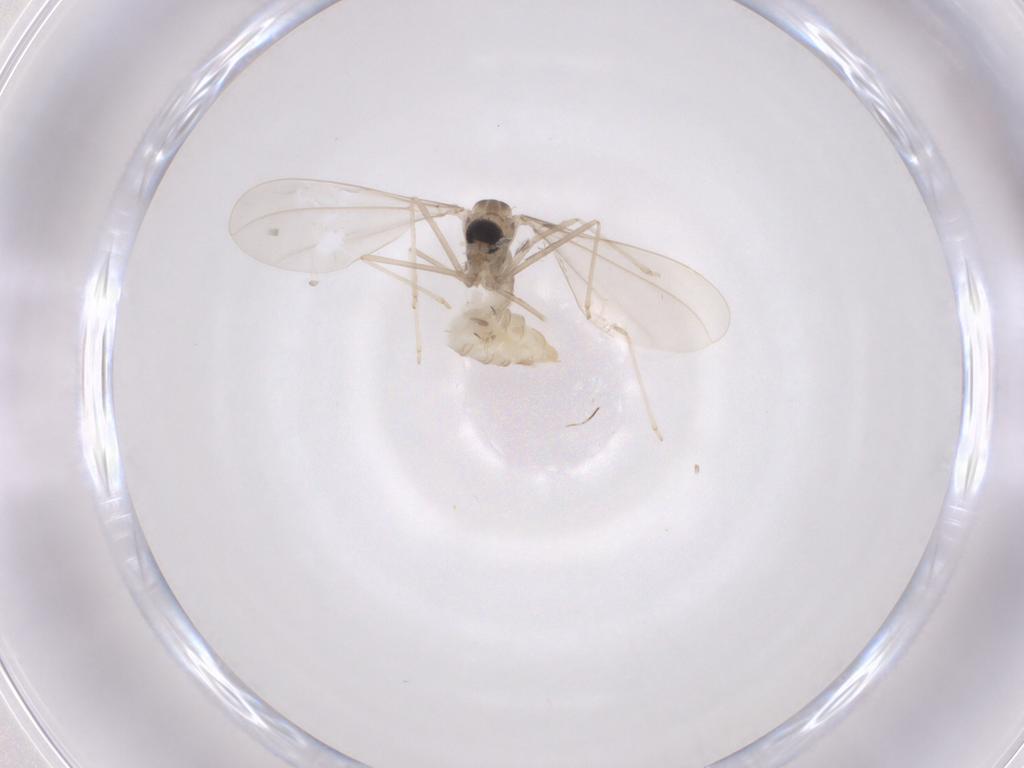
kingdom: Animalia
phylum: Arthropoda
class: Insecta
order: Diptera
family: Cecidomyiidae
